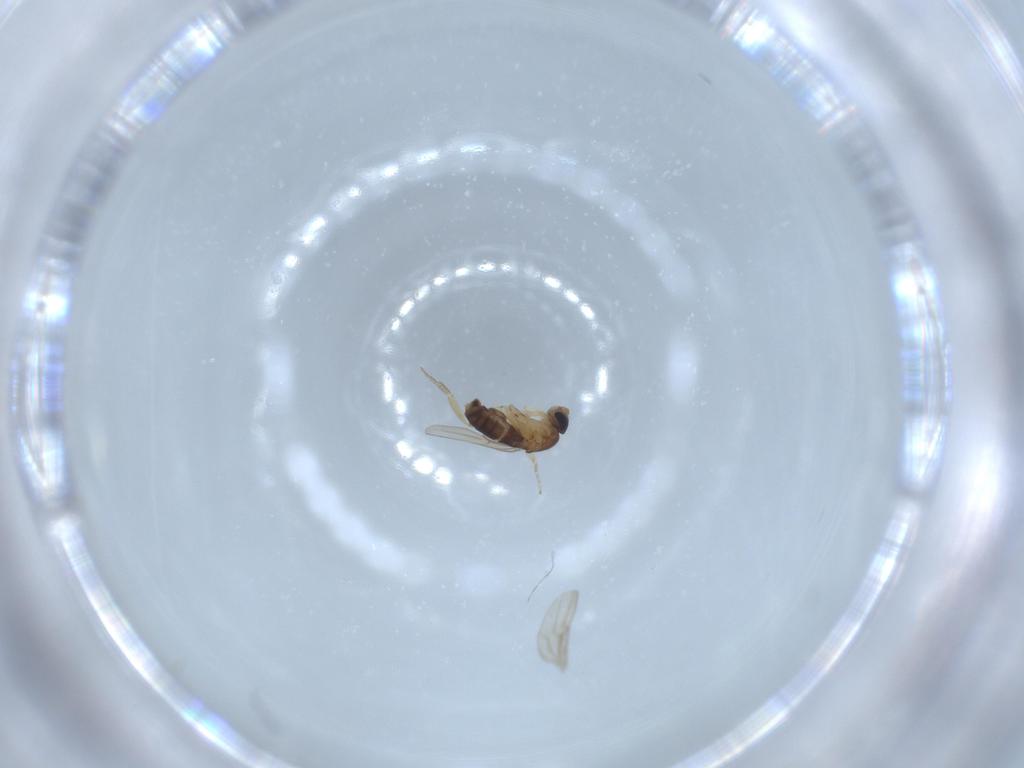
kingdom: Animalia
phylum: Arthropoda
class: Insecta
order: Diptera
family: Phoridae
